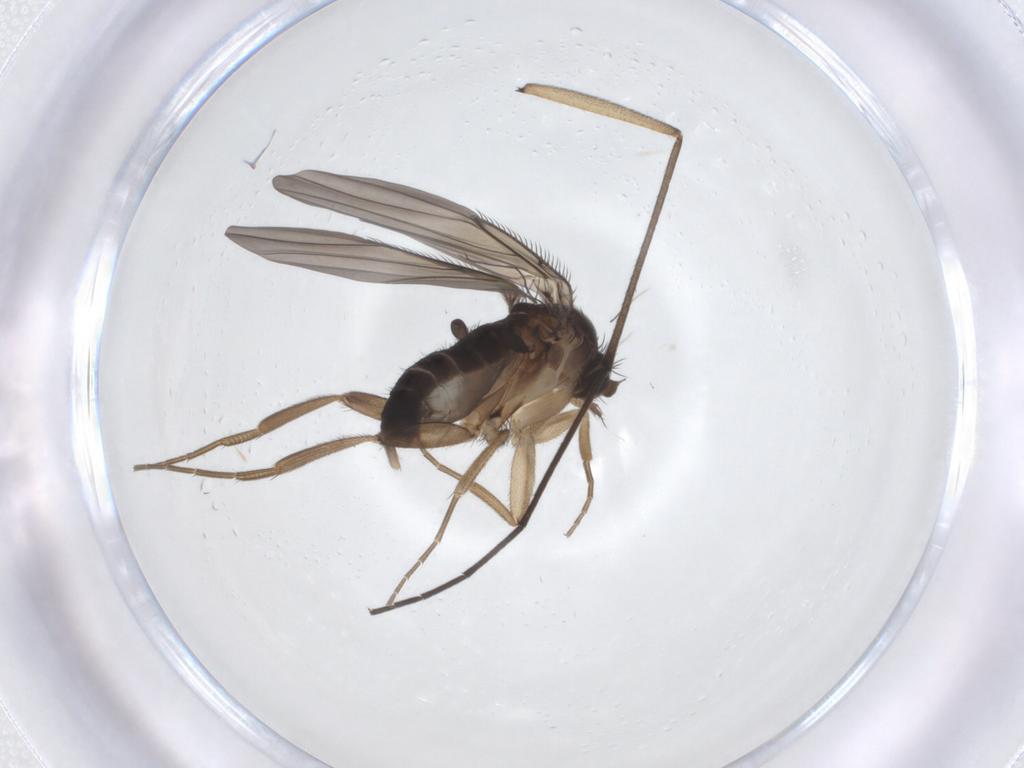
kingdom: Animalia
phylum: Arthropoda
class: Insecta
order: Diptera
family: Phoridae
